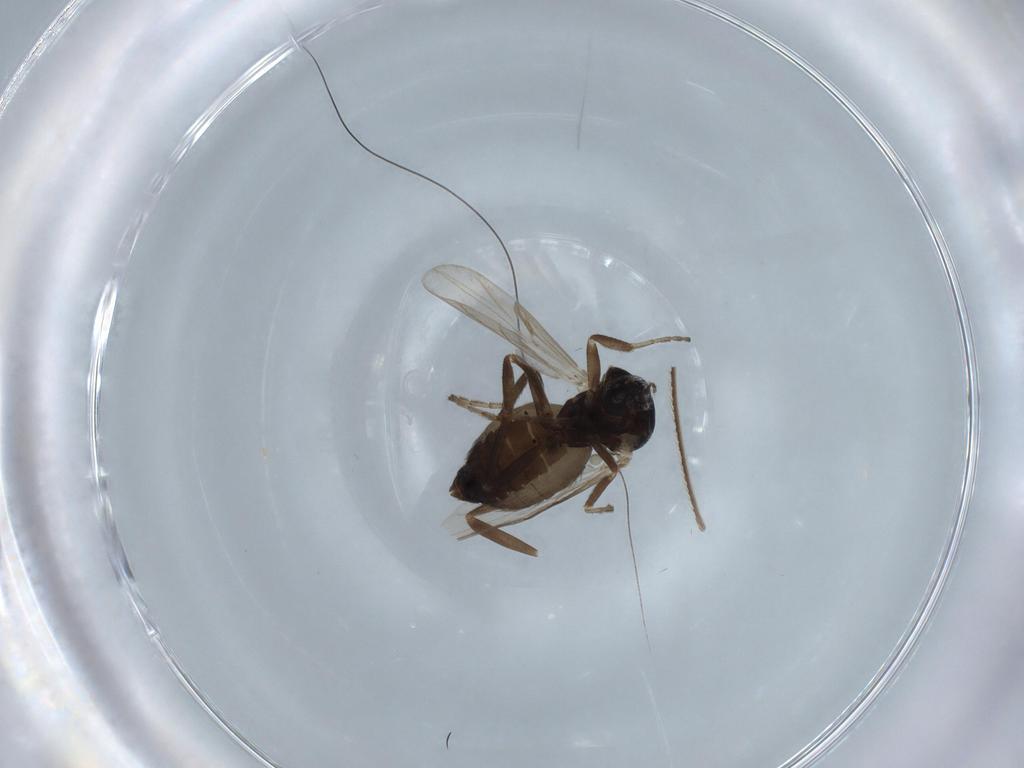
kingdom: Animalia
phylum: Arthropoda
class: Insecta
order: Diptera
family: Ceratopogonidae
